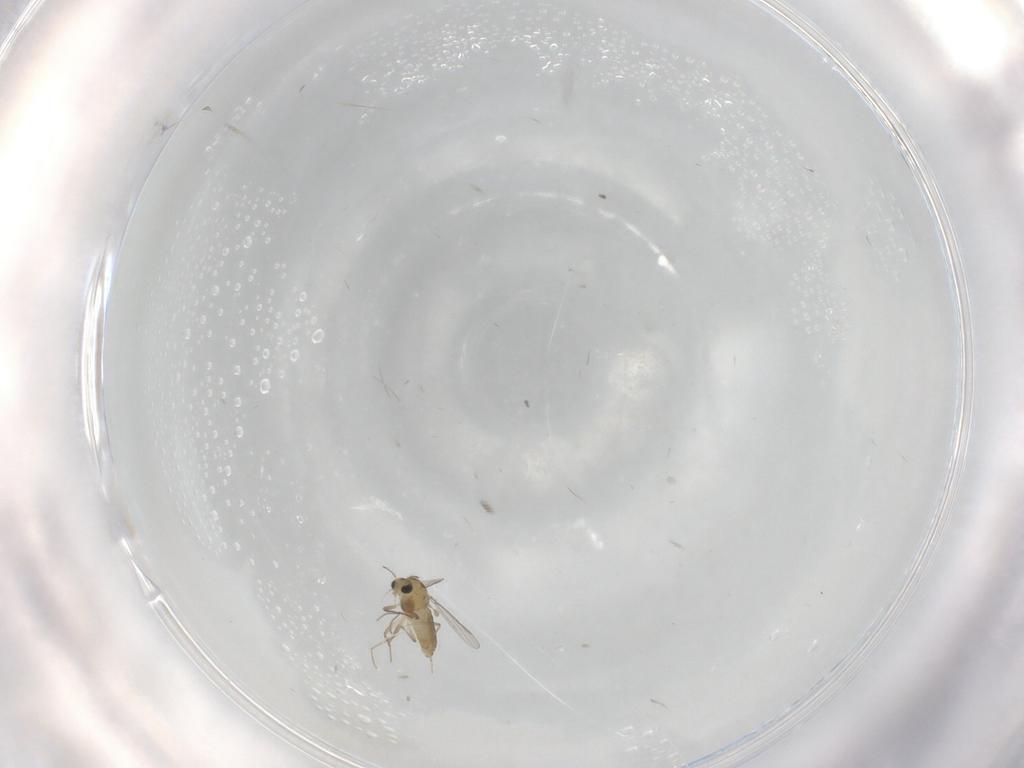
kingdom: Animalia
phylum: Arthropoda
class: Insecta
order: Diptera
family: Chironomidae
